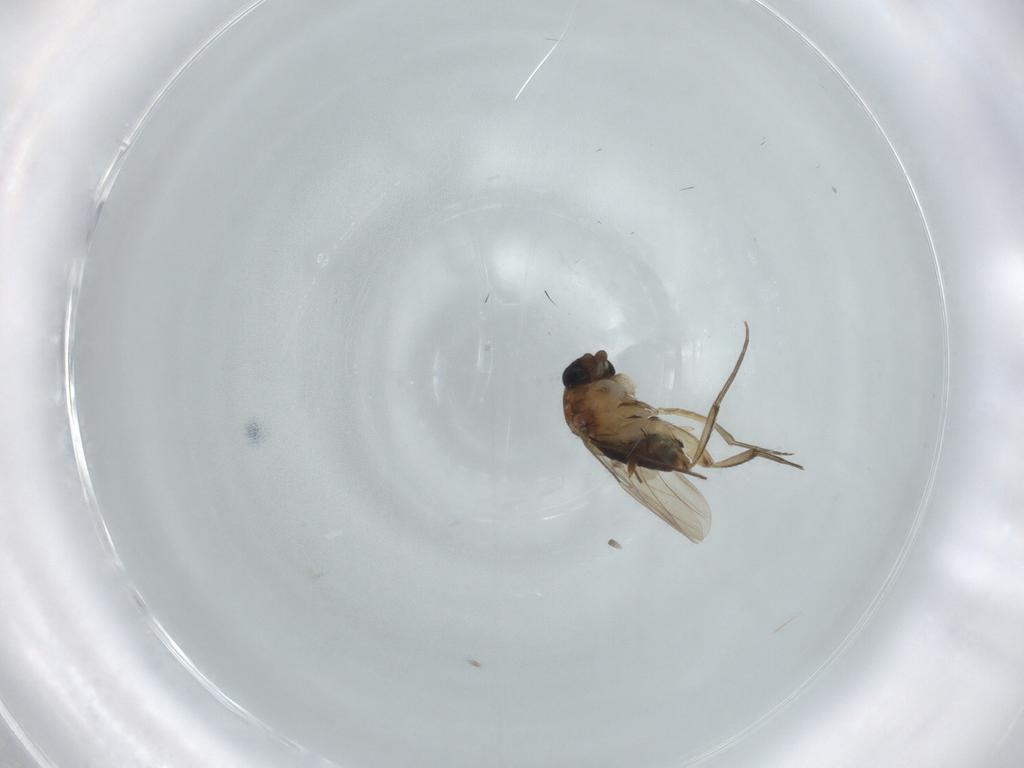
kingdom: Animalia
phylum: Arthropoda
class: Insecta
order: Diptera
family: Phoridae
